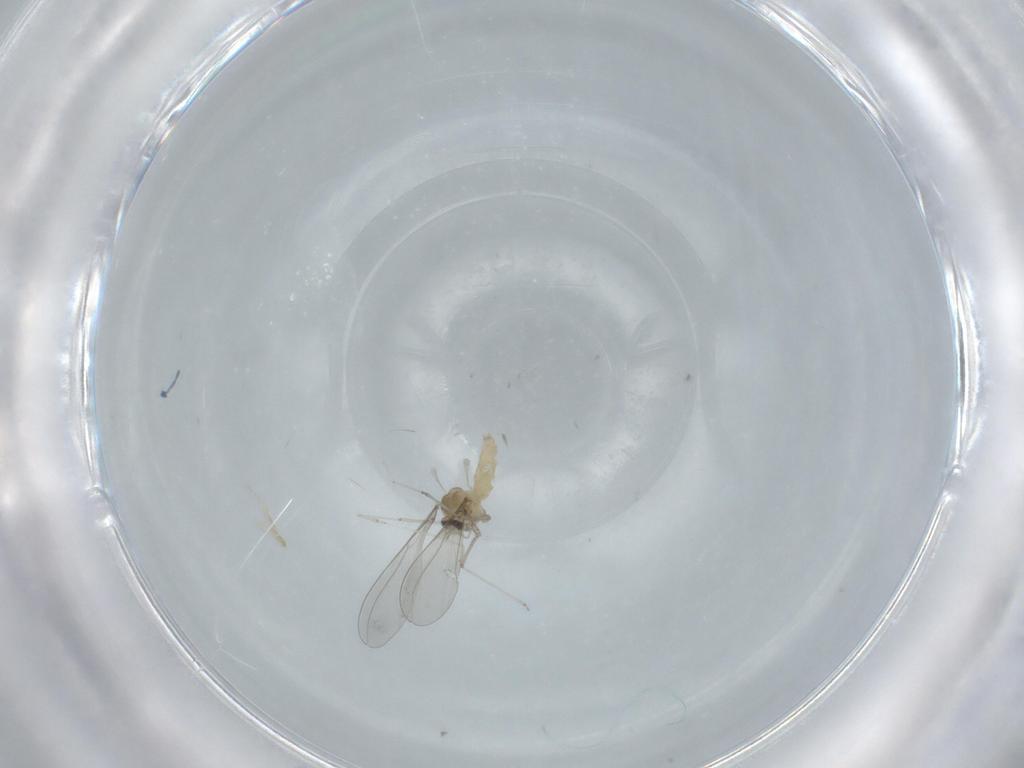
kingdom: Animalia
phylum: Arthropoda
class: Insecta
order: Diptera
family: Cecidomyiidae
